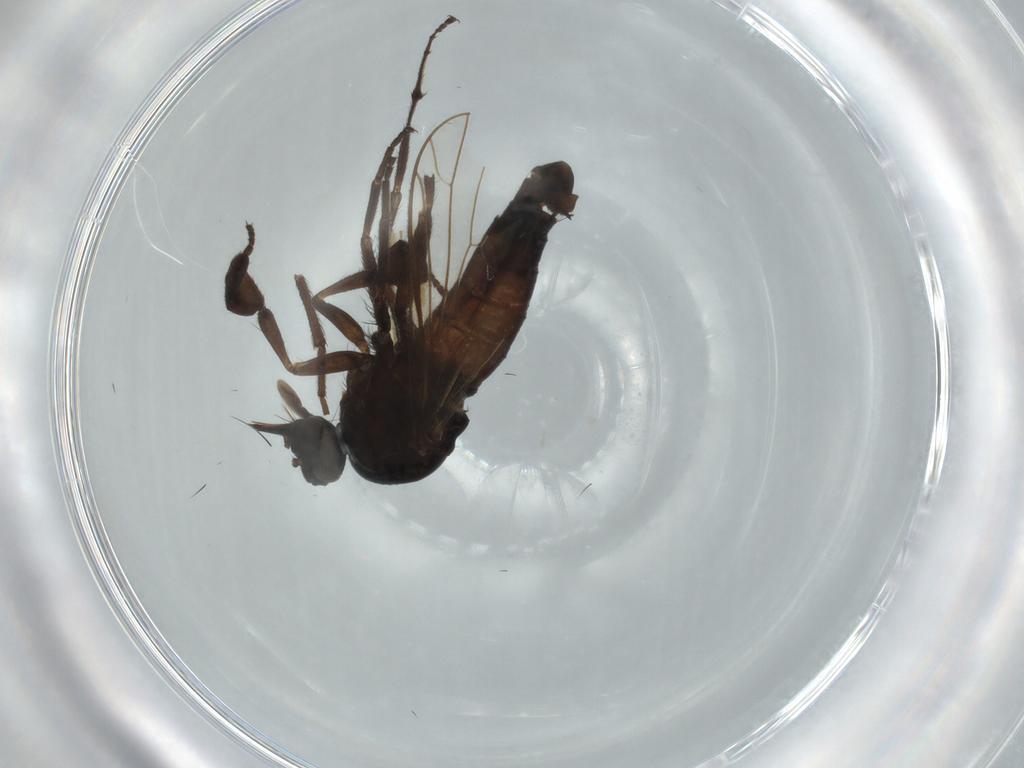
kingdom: Animalia
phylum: Arthropoda
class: Insecta
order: Diptera
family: Empididae
